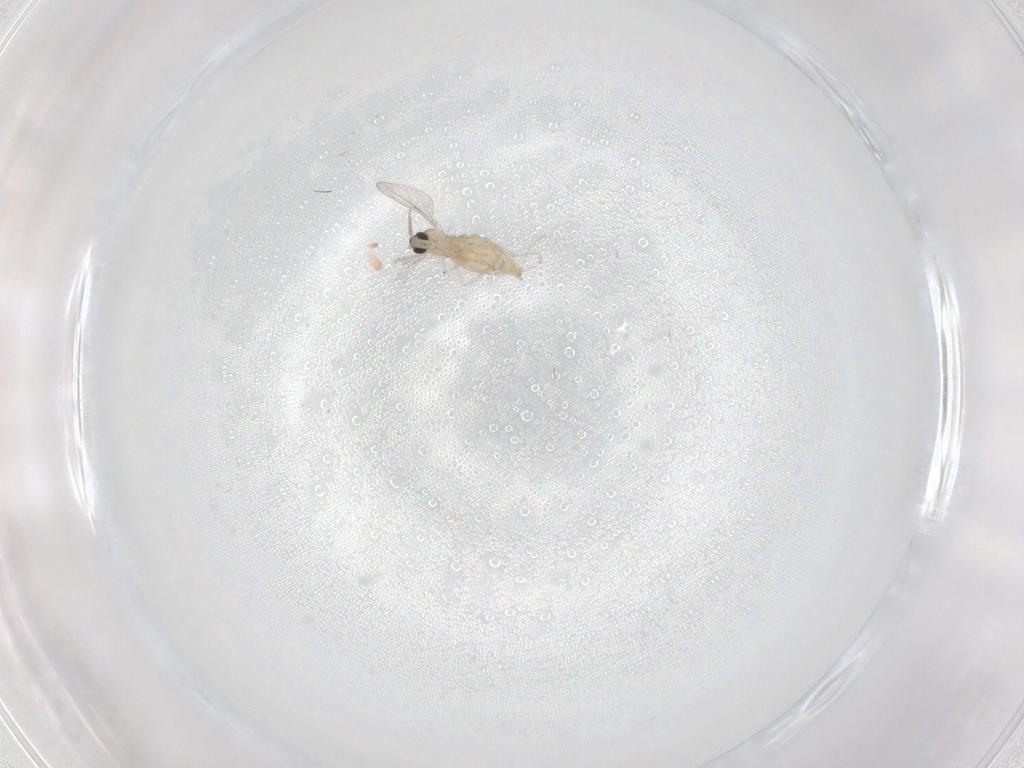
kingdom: Animalia
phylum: Arthropoda
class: Insecta
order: Diptera
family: Cecidomyiidae
